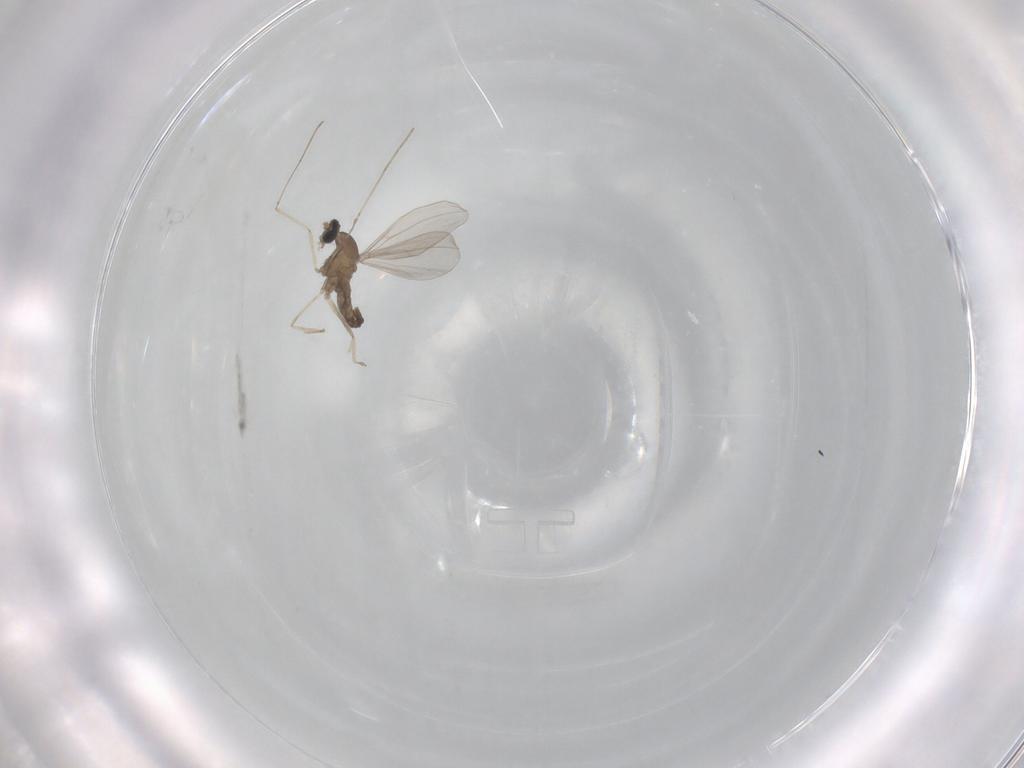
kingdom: Animalia
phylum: Arthropoda
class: Insecta
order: Diptera
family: Cecidomyiidae
